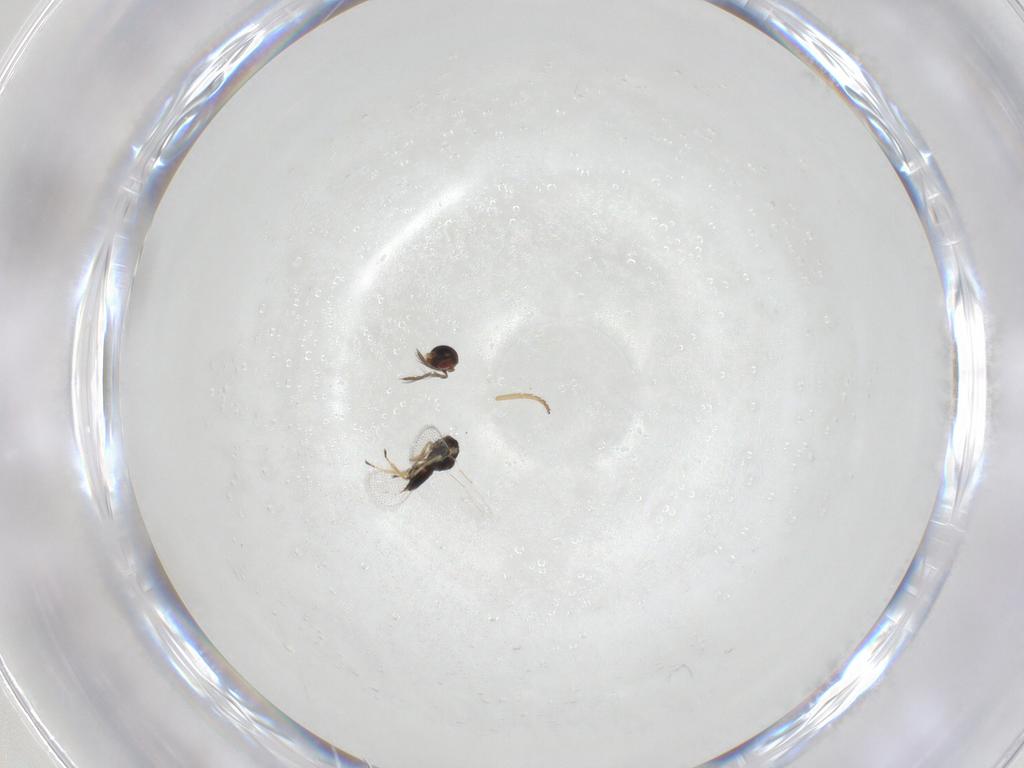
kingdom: Animalia
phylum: Arthropoda
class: Insecta
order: Hymenoptera
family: Eulophidae
